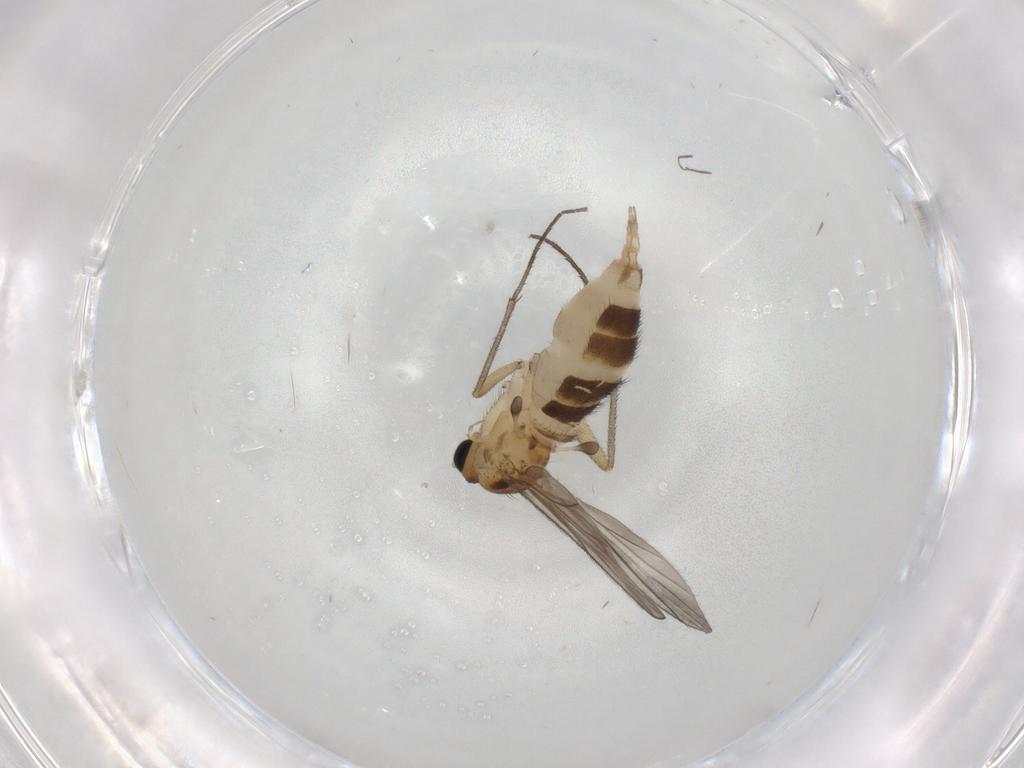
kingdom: Animalia
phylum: Arthropoda
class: Insecta
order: Diptera
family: Sciaridae
